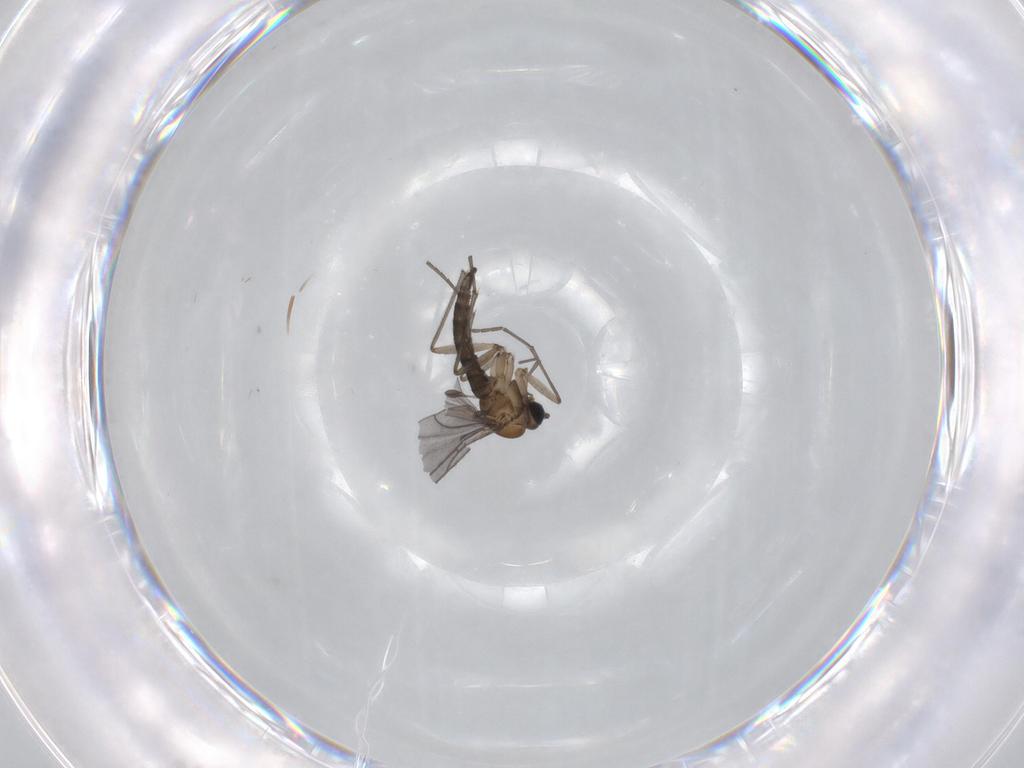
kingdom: Animalia
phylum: Arthropoda
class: Insecta
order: Diptera
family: Sciaridae
